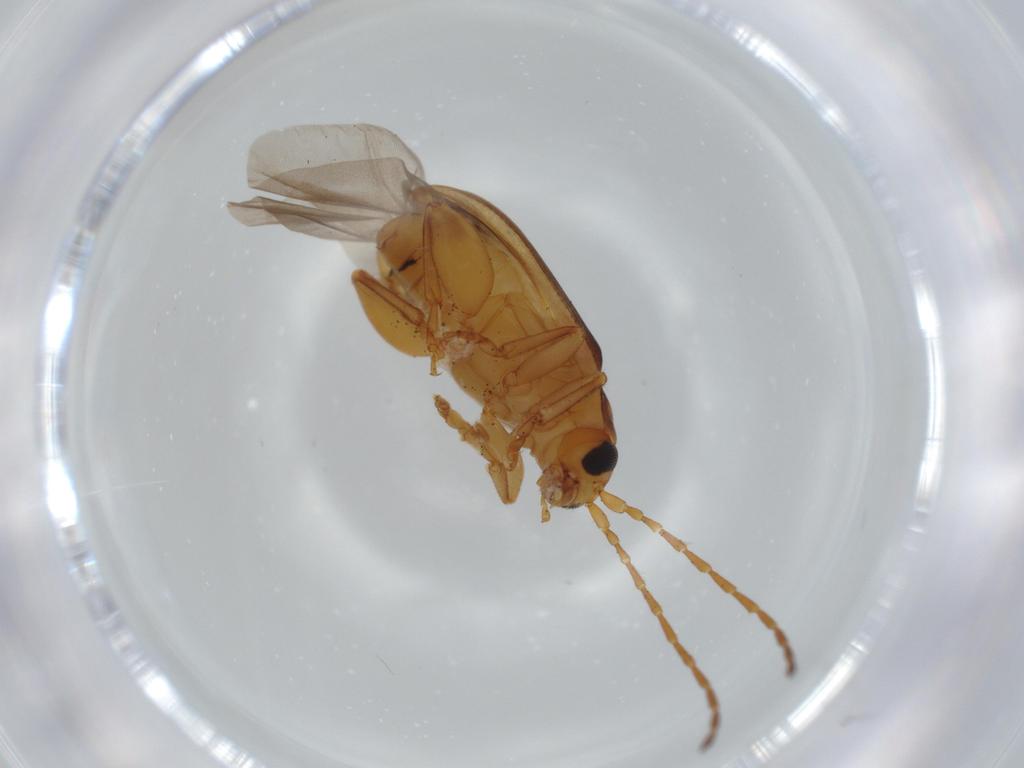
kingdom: Animalia
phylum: Arthropoda
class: Insecta
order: Coleoptera
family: Chrysomelidae
